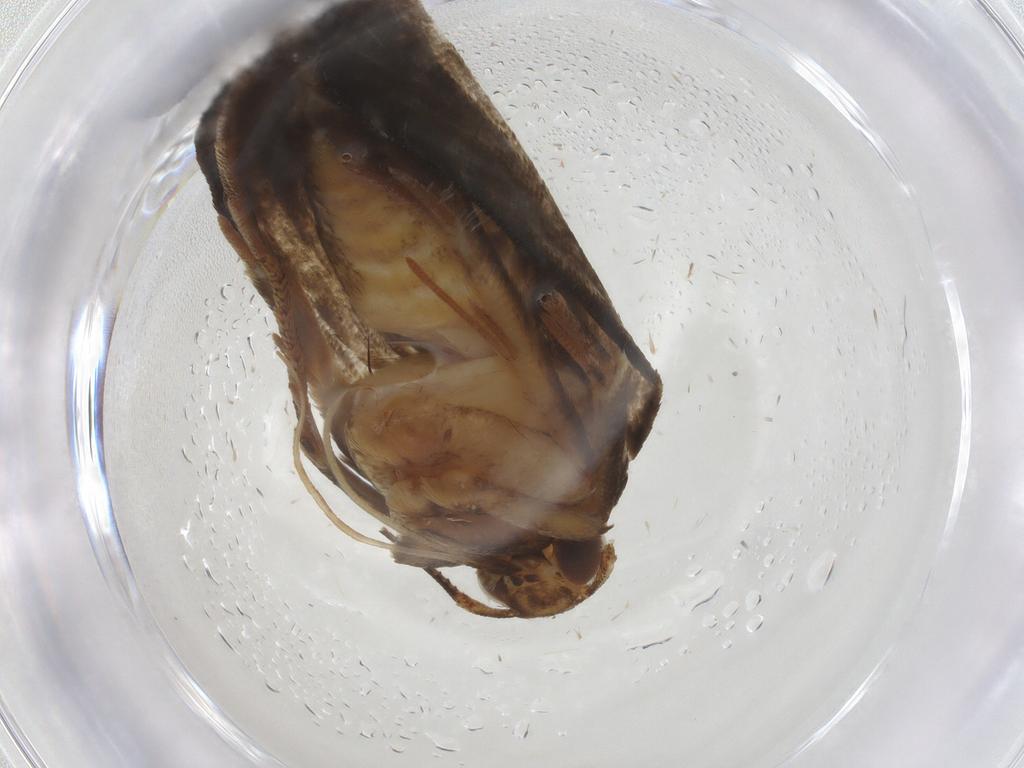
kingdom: Animalia
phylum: Arthropoda
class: Insecta
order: Lepidoptera
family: Gelechiidae
